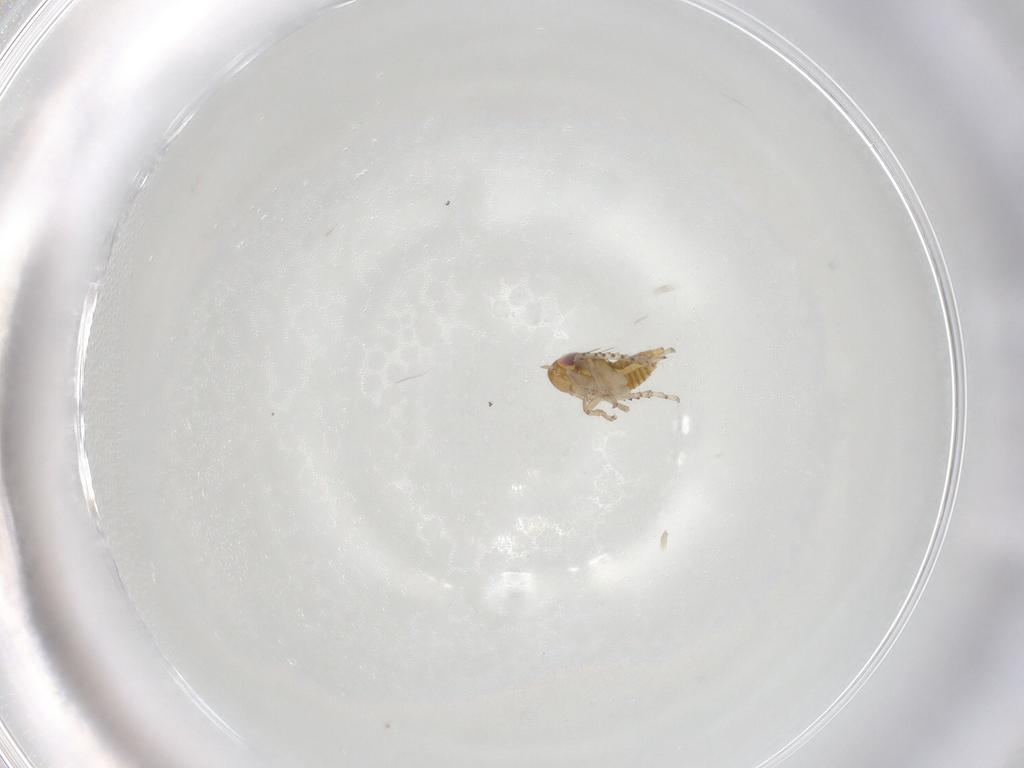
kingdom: Animalia
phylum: Arthropoda
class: Insecta
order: Hemiptera
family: Cicadellidae
